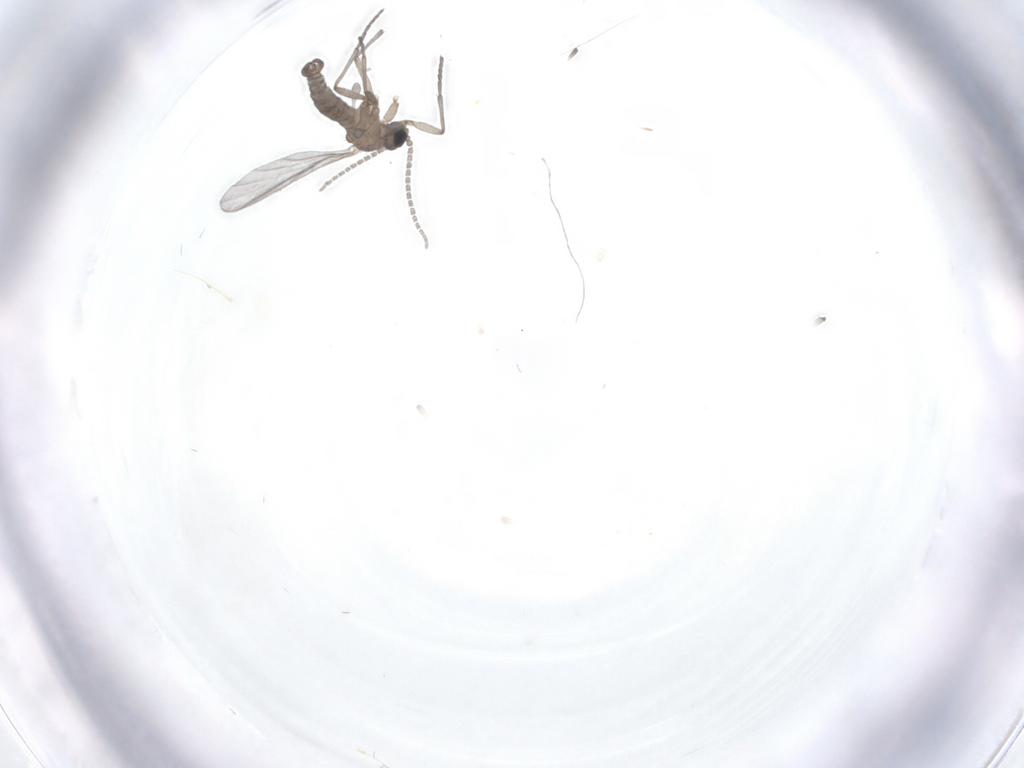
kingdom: Animalia
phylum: Arthropoda
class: Insecta
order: Diptera
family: Sciaridae
